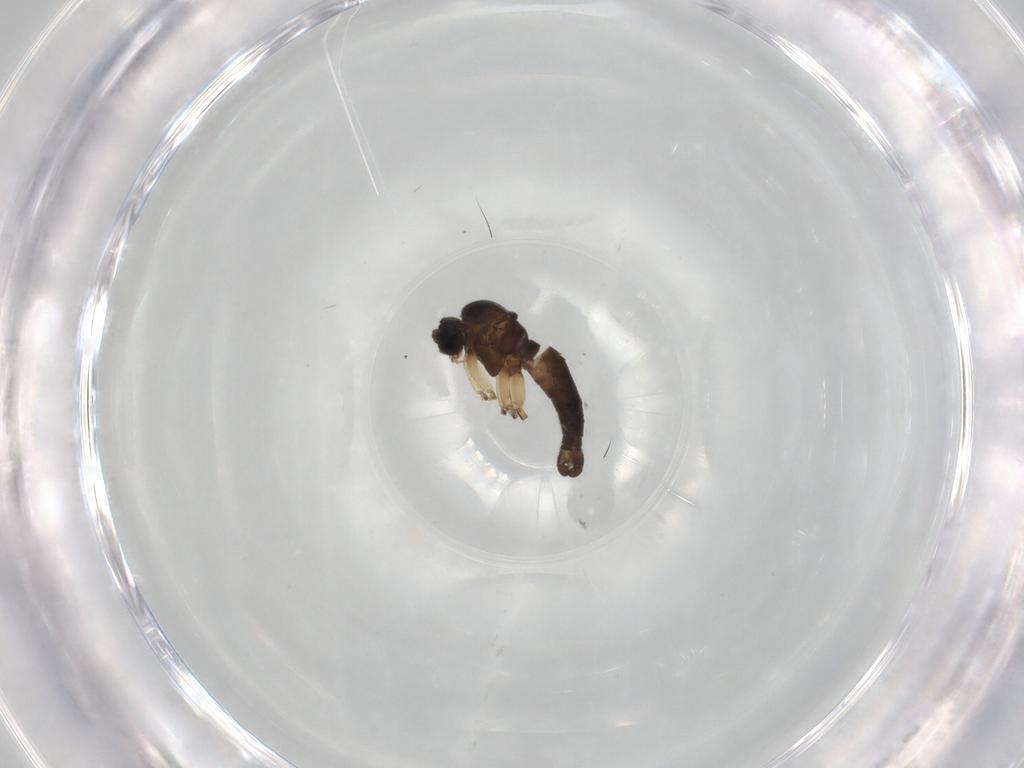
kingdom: Animalia
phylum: Arthropoda
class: Insecta
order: Diptera
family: Sciaridae
